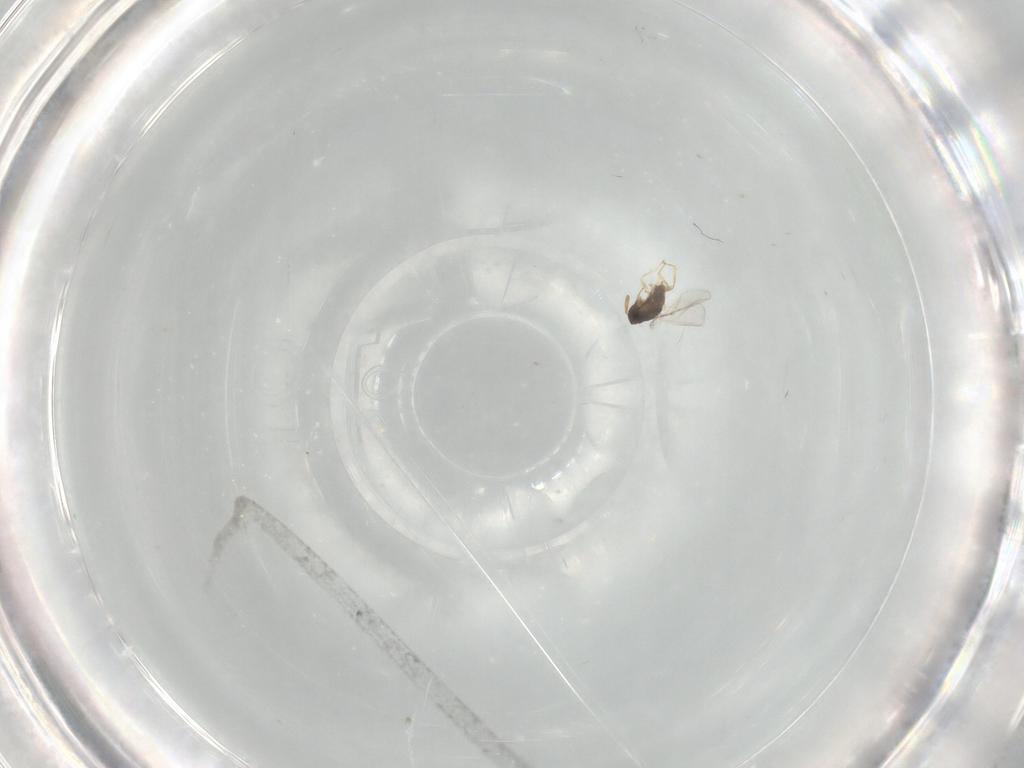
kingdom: Animalia
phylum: Arthropoda
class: Insecta
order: Hymenoptera
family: Encyrtidae
